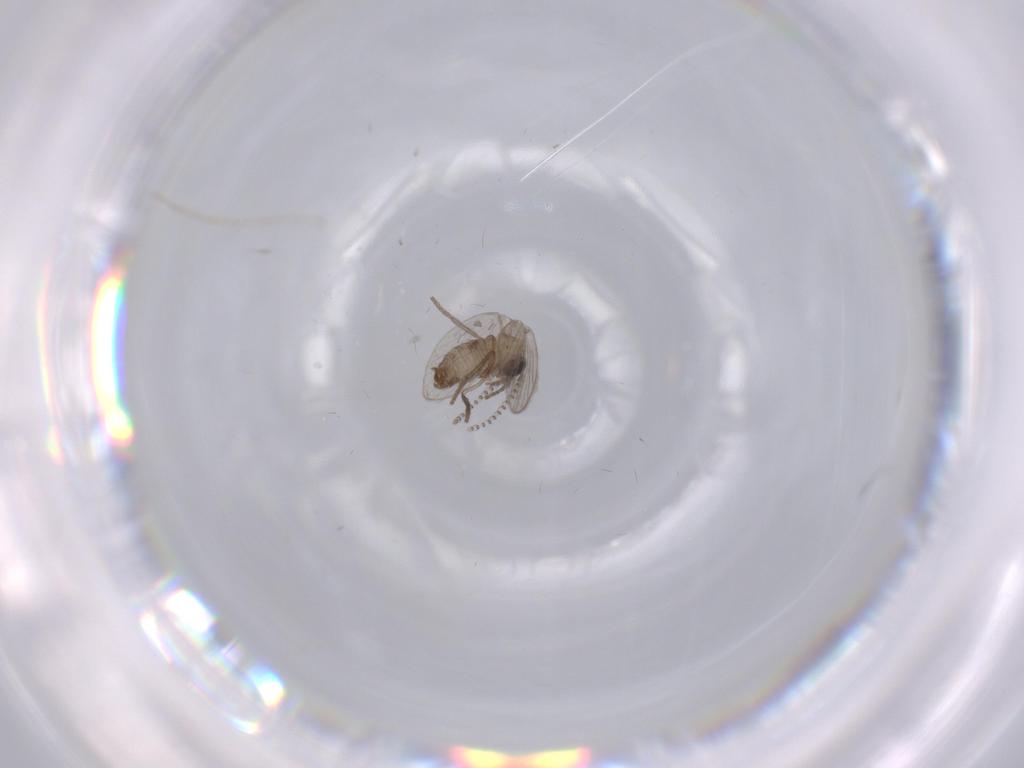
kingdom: Animalia
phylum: Arthropoda
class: Insecta
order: Diptera
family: Psychodidae
